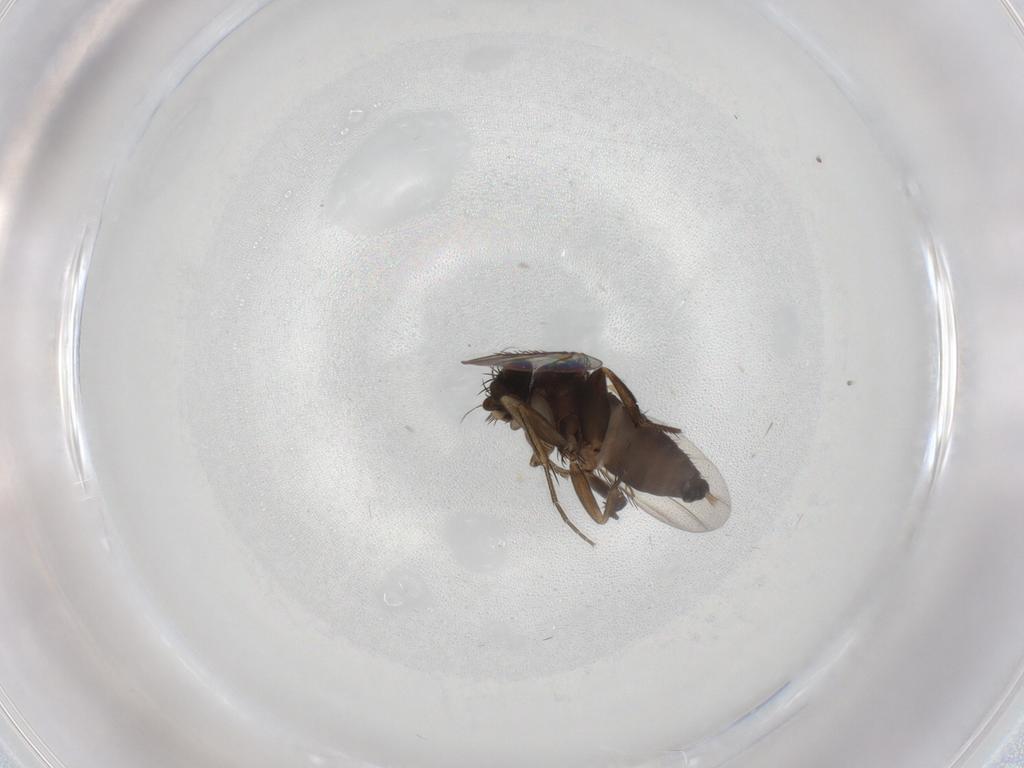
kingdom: Animalia
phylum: Arthropoda
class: Insecta
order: Diptera
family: Phoridae
